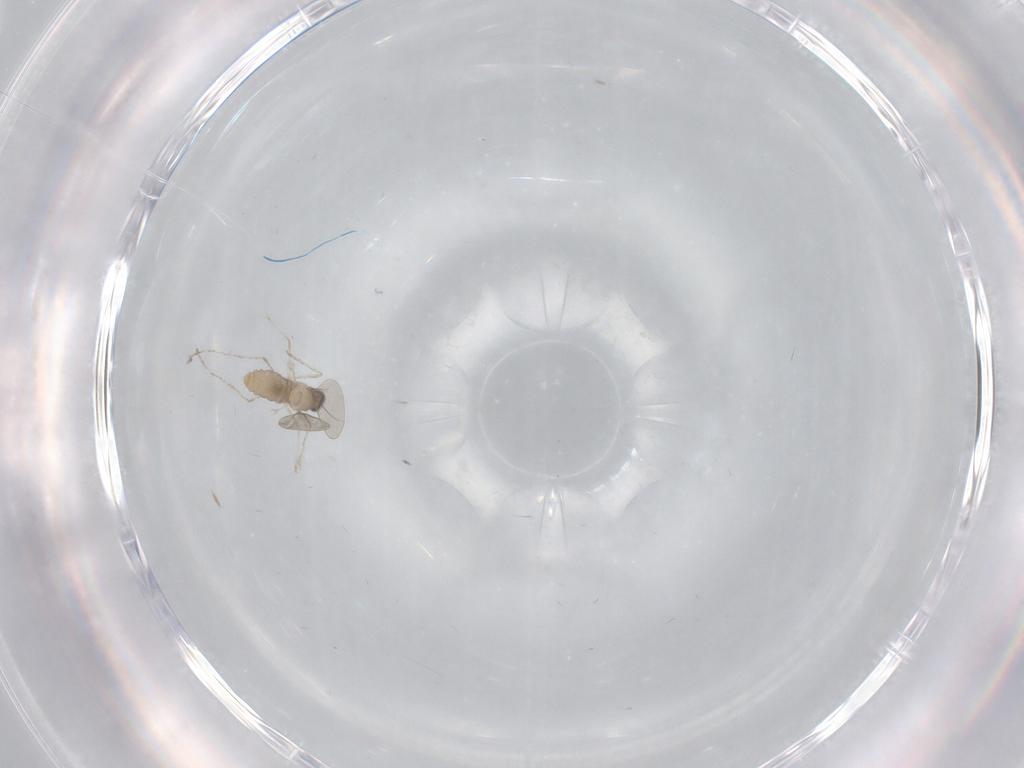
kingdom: Animalia
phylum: Arthropoda
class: Insecta
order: Diptera
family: Cecidomyiidae
